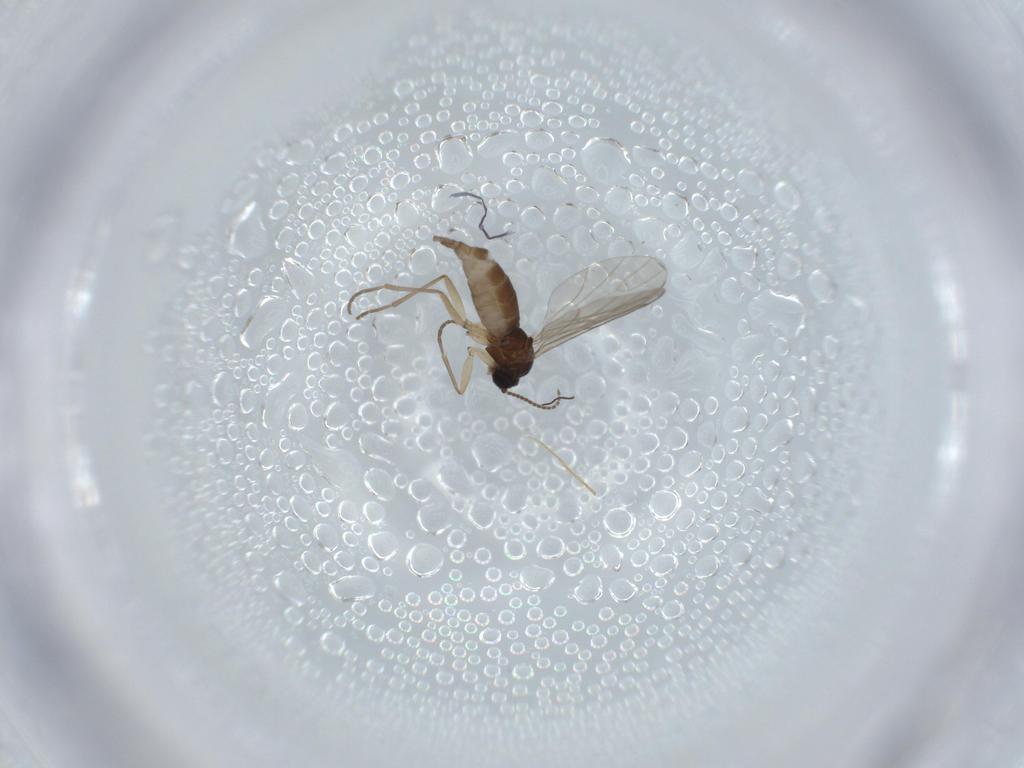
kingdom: Animalia
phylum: Arthropoda
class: Insecta
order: Diptera
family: Sciaridae
